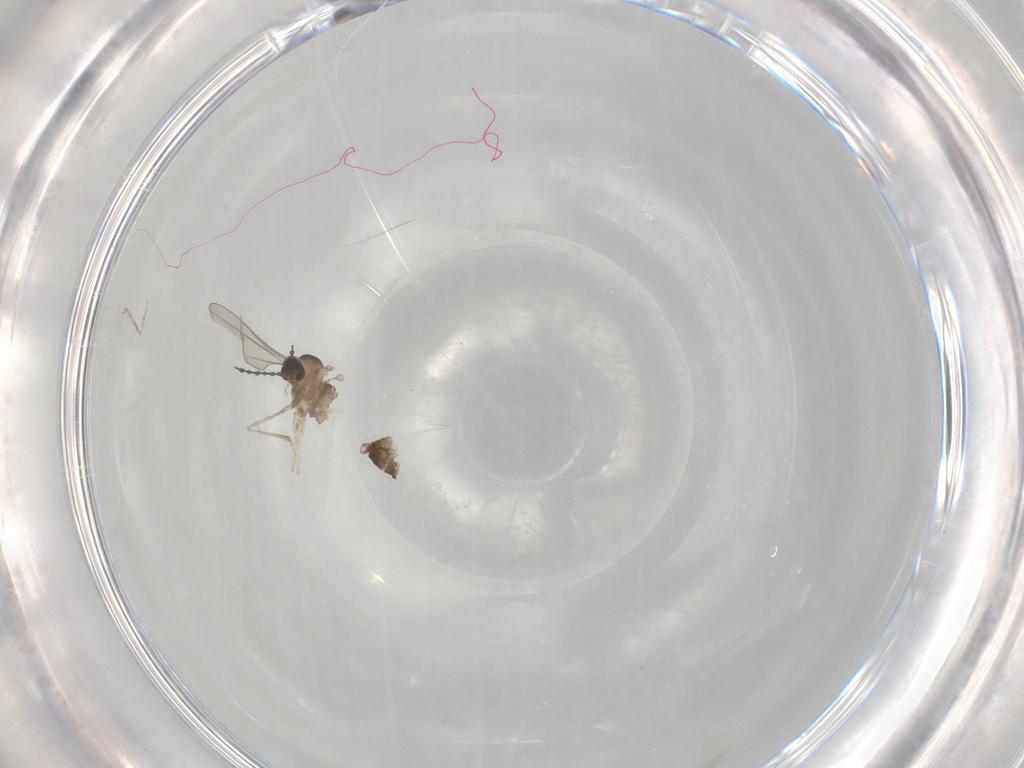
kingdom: Animalia
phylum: Arthropoda
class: Insecta
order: Diptera
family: Cecidomyiidae
